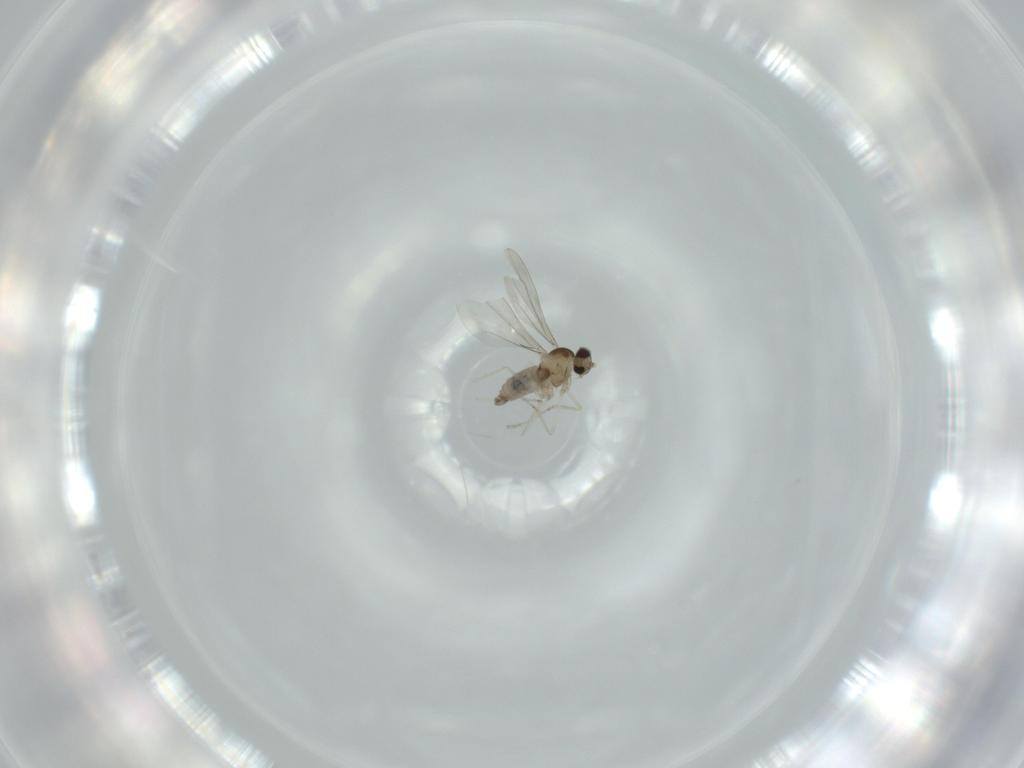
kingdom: Animalia
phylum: Arthropoda
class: Insecta
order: Diptera
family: Cecidomyiidae
